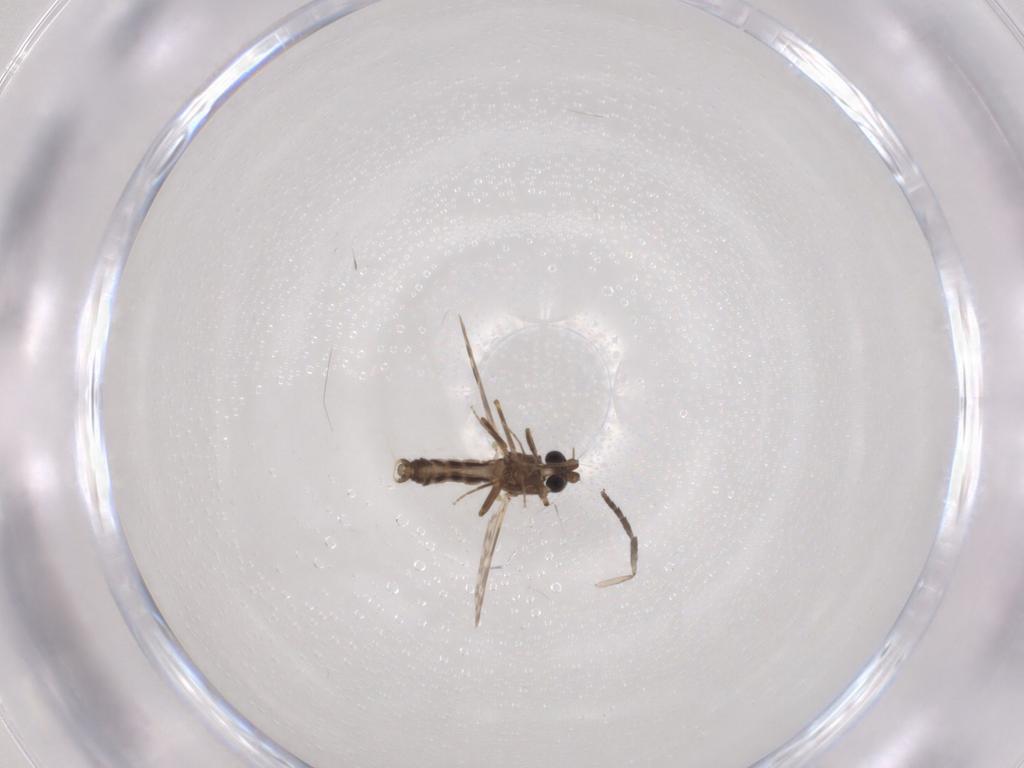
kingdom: Animalia
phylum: Arthropoda
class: Insecta
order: Diptera
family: Ceratopogonidae
